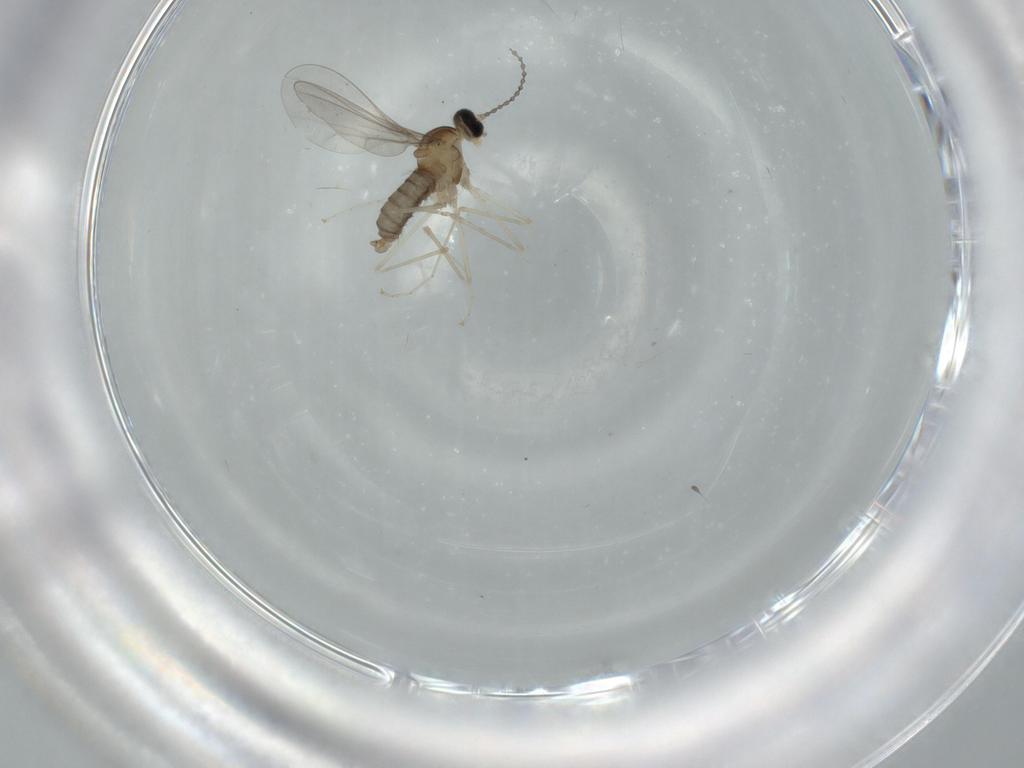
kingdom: Animalia
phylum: Arthropoda
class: Insecta
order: Diptera
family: Cecidomyiidae
